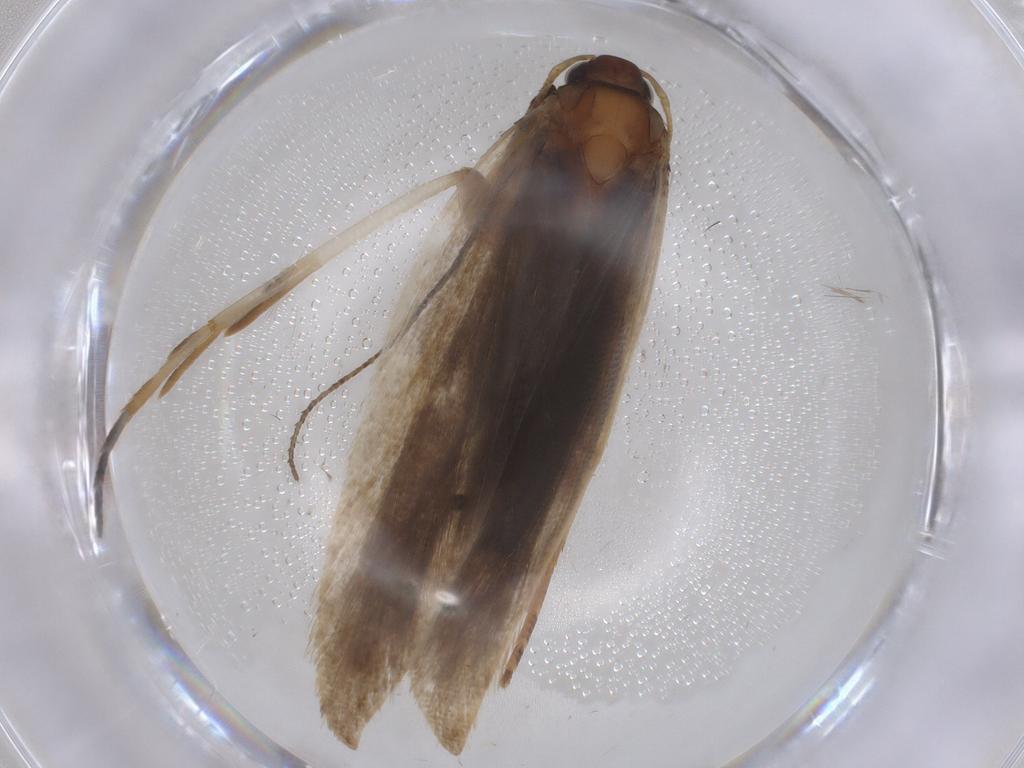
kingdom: Animalia
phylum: Arthropoda
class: Insecta
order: Lepidoptera
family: Gelechiidae
